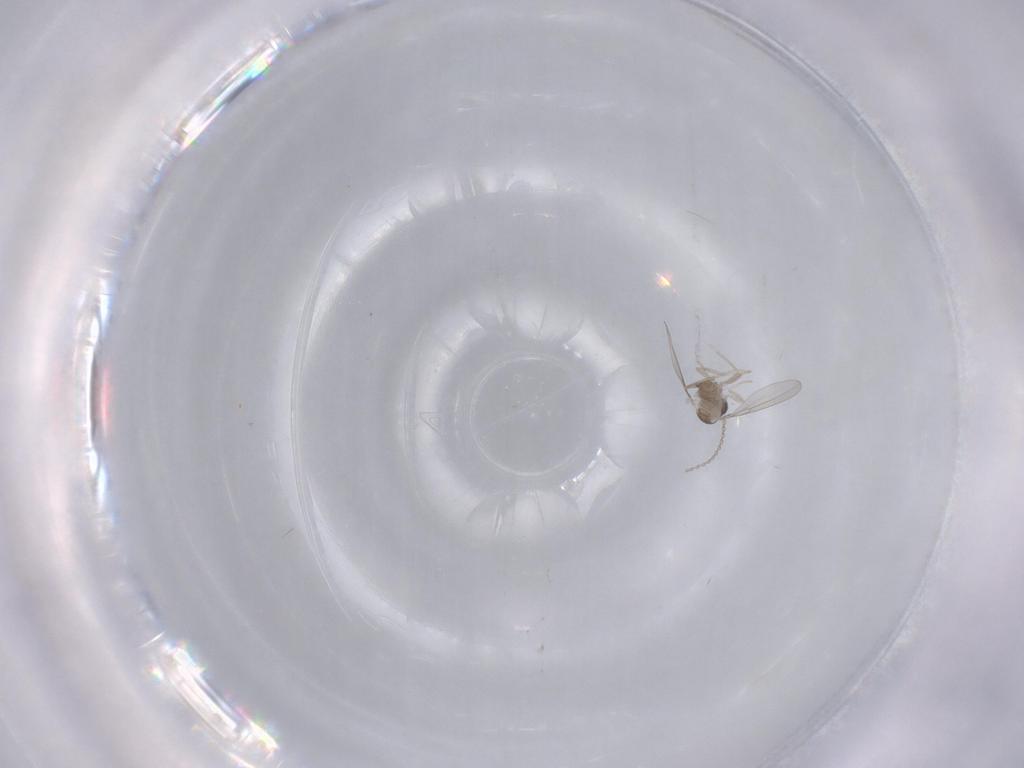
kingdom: Animalia
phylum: Arthropoda
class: Insecta
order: Diptera
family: Cecidomyiidae
